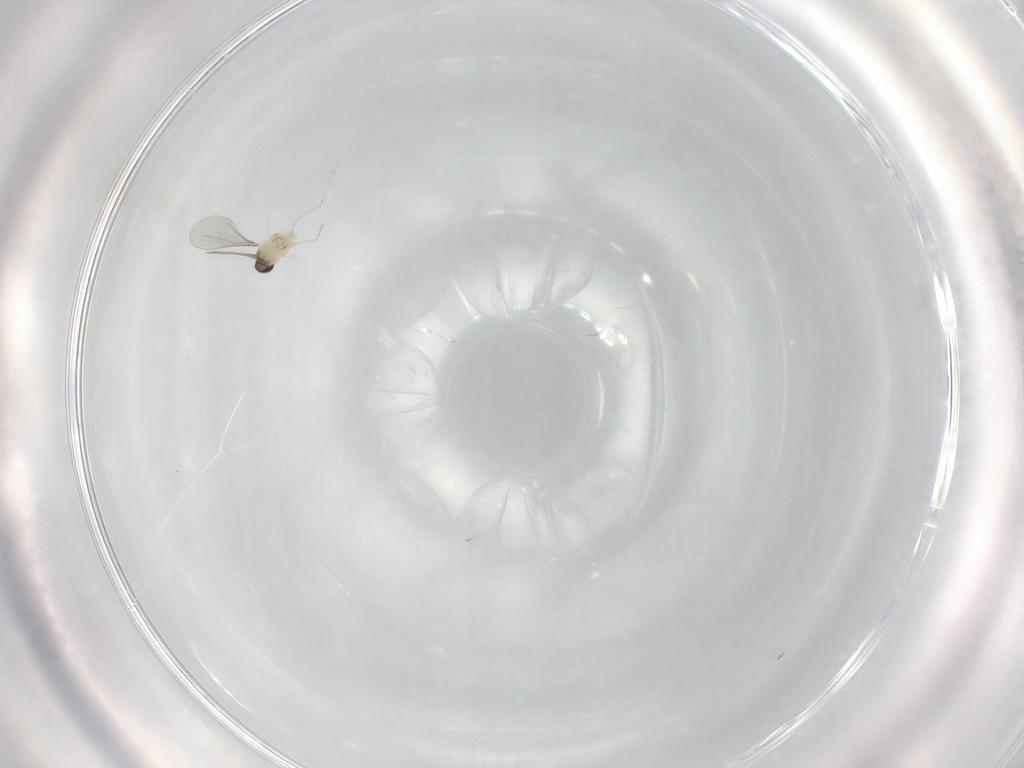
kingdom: Animalia
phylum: Arthropoda
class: Insecta
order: Diptera
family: Cecidomyiidae
